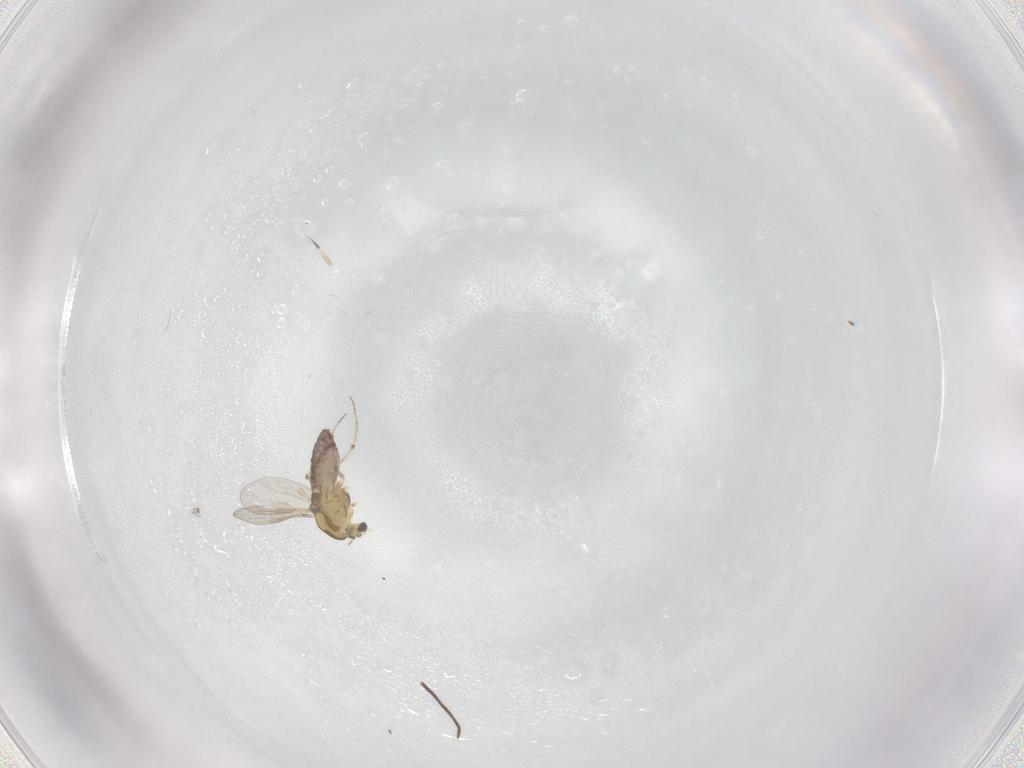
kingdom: Animalia
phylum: Arthropoda
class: Insecta
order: Diptera
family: Chironomidae
